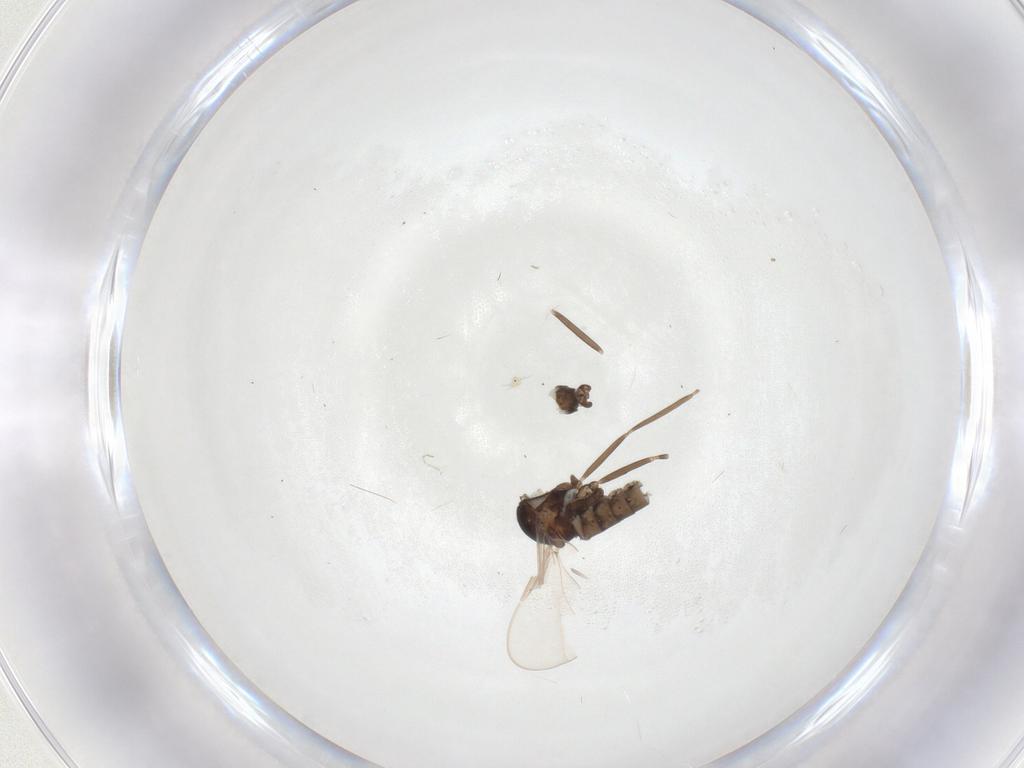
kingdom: Animalia
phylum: Arthropoda
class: Insecta
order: Diptera
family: Cecidomyiidae
